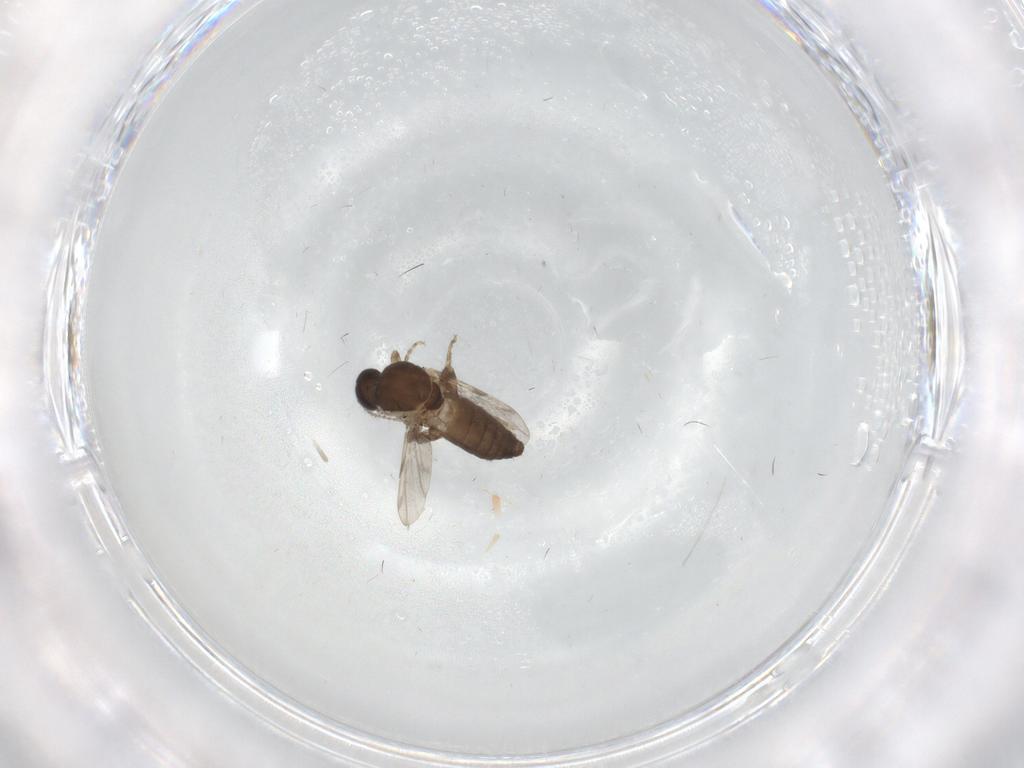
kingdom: Animalia
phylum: Arthropoda
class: Insecta
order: Diptera
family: Ceratopogonidae
